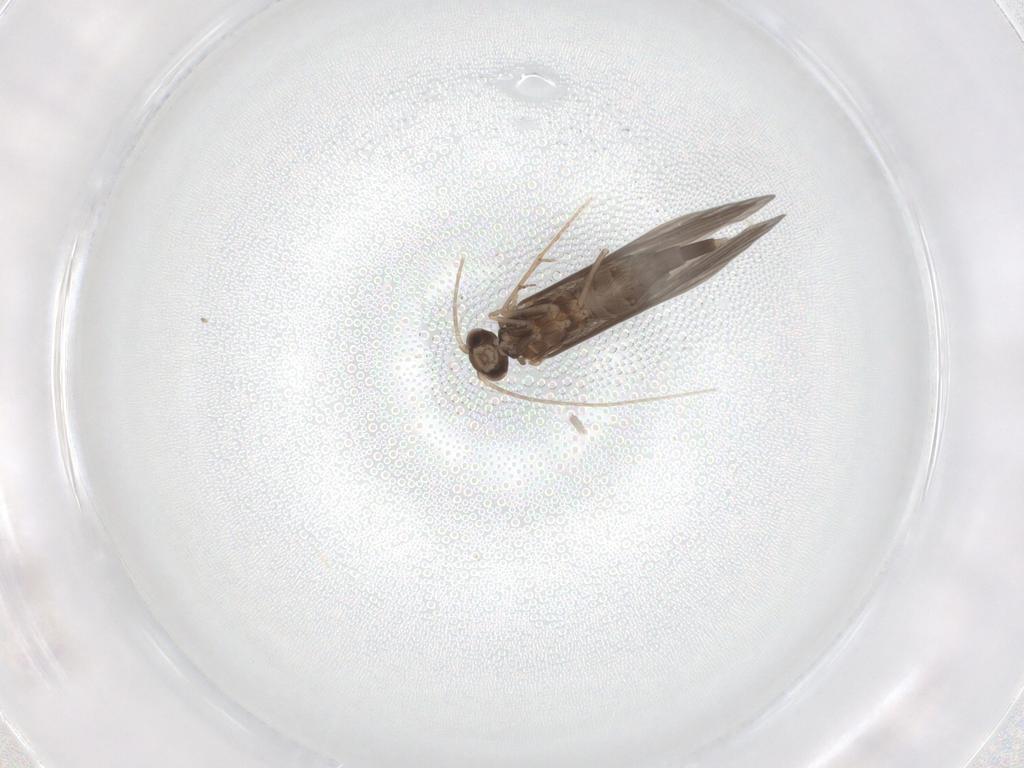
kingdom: Animalia
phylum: Arthropoda
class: Insecta
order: Trichoptera
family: Xiphocentronidae
